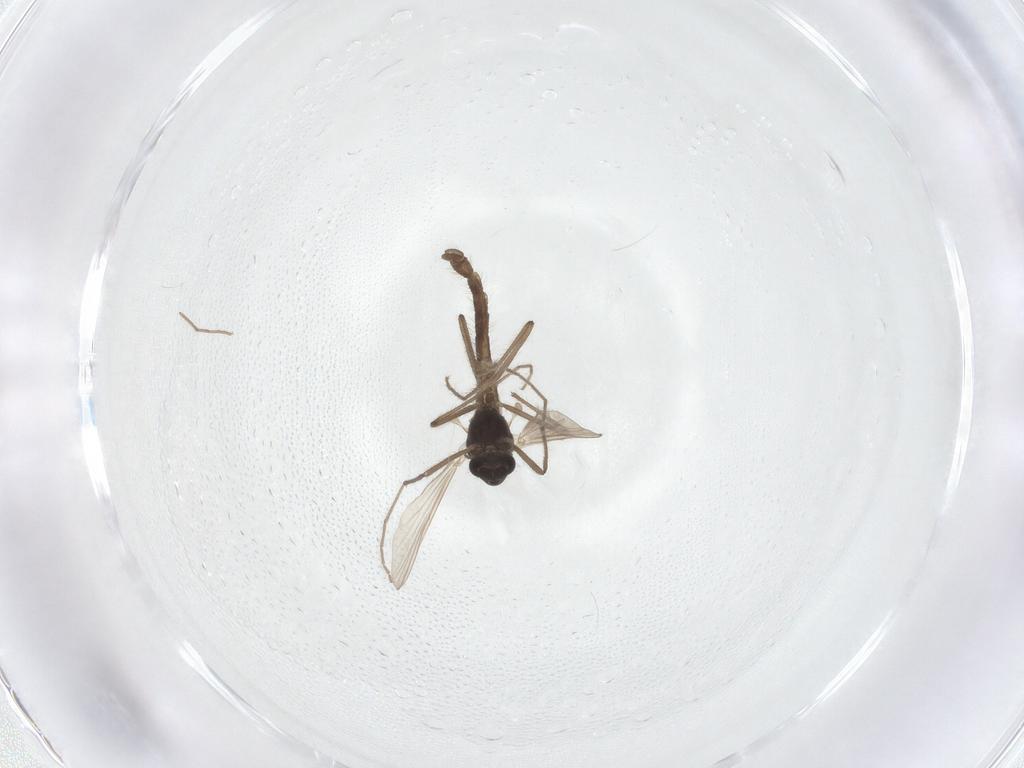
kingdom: Animalia
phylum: Arthropoda
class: Insecta
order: Diptera
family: Chironomidae
